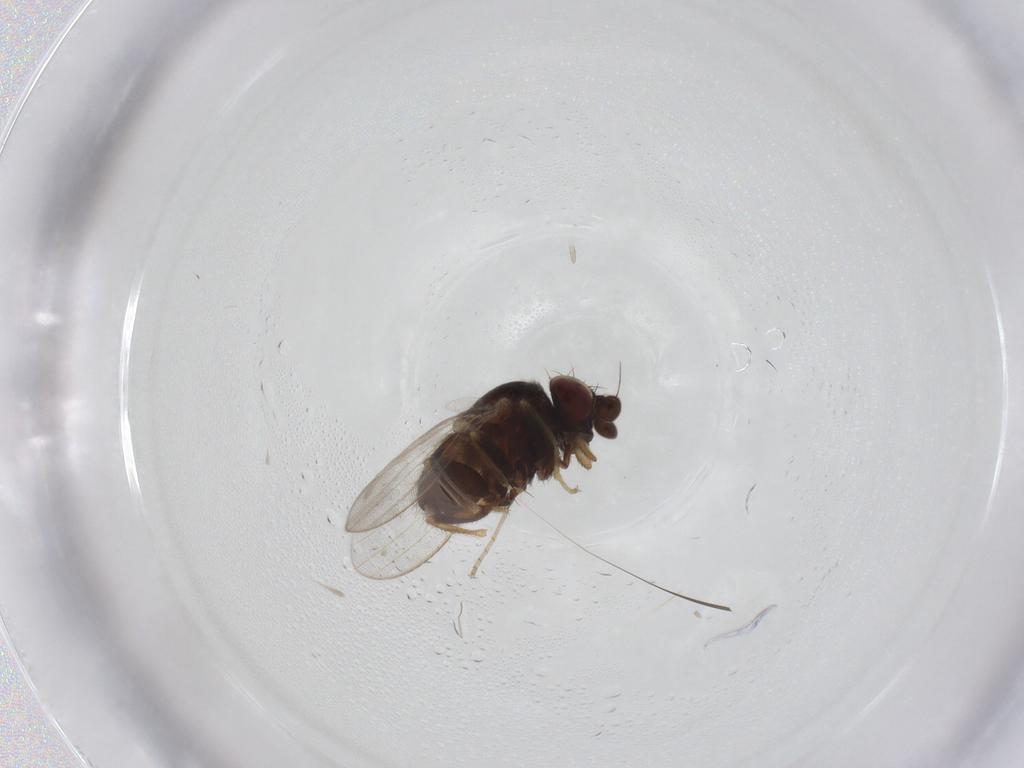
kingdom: Animalia
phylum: Arthropoda
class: Insecta
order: Diptera
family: Milichiidae
